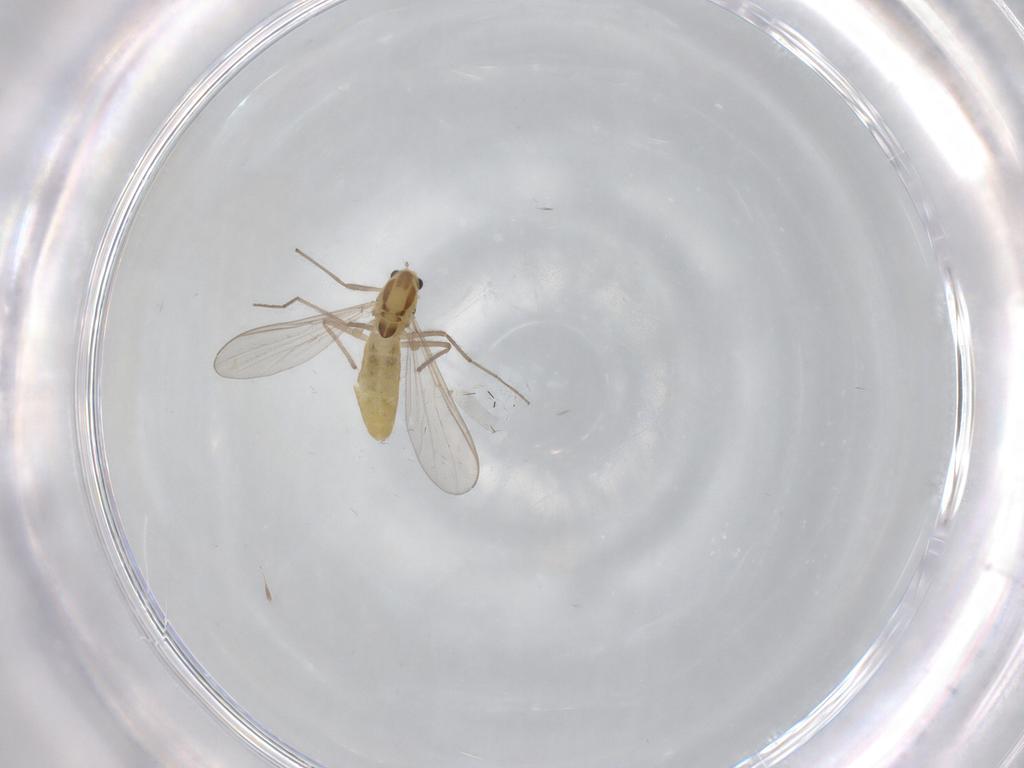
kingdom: Animalia
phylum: Arthropoda
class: Insecta
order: Diptera
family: Chironomidae
